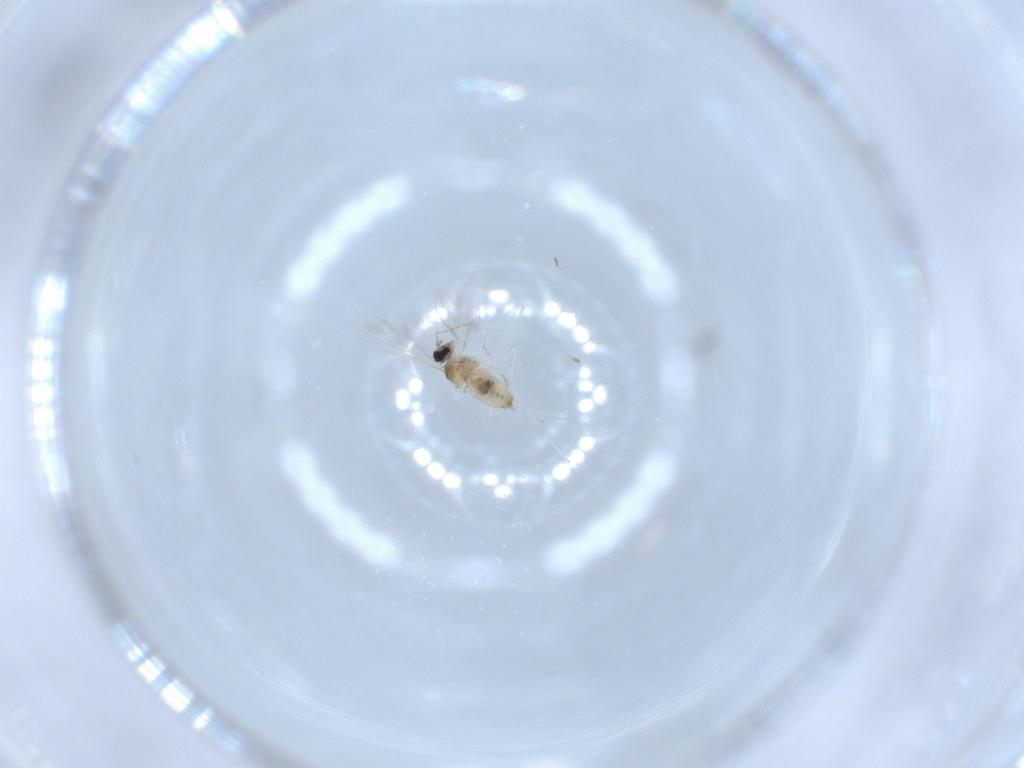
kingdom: Animalia
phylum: Arthropoda
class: Insecta
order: Diptera
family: Cecidomyiidae
